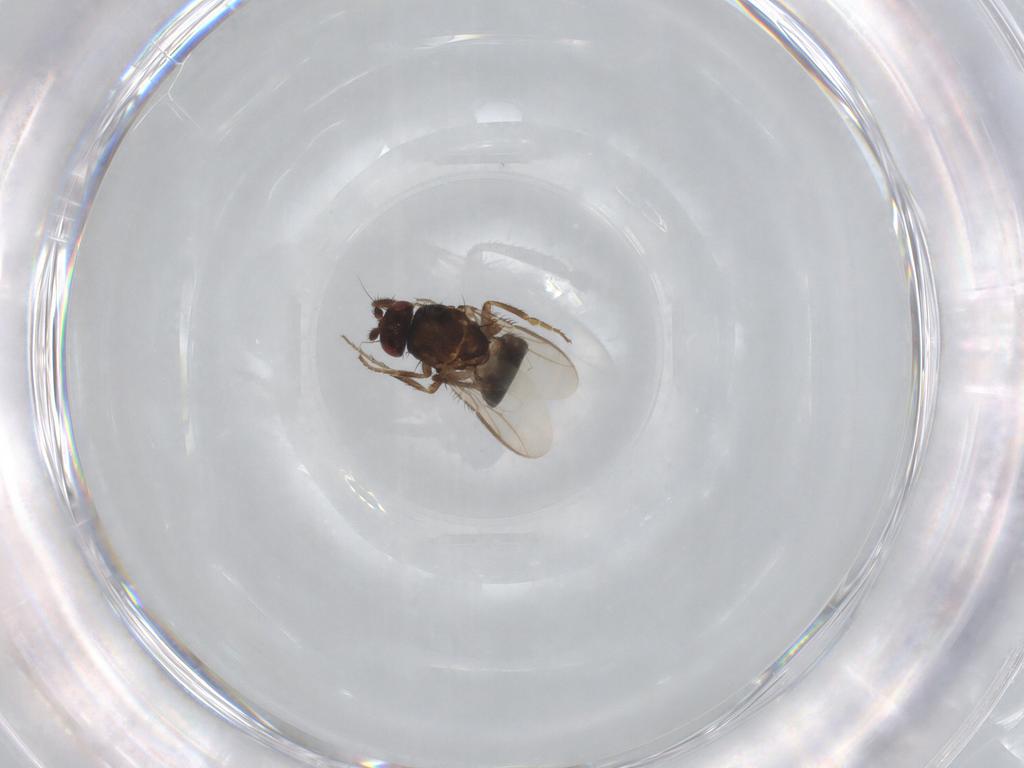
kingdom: Animalia
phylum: Arthropoda
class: Insecta
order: Diptera
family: Sphaeroceridae
